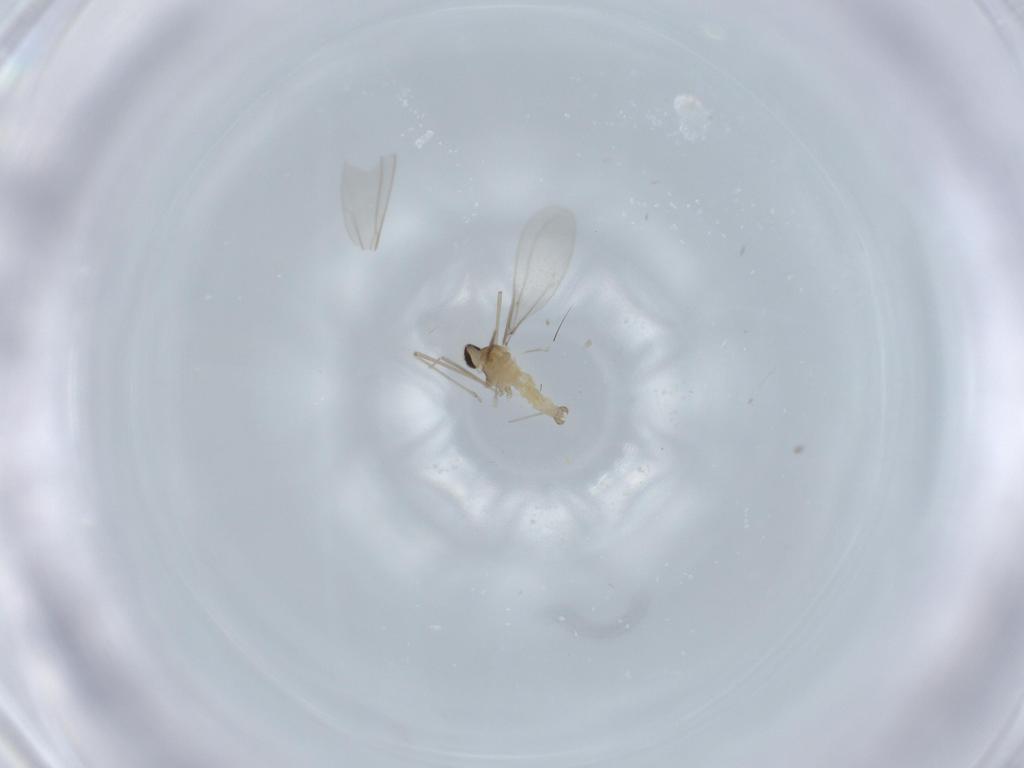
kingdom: Animalia
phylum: Arthropoda
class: Insecta
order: Diptera
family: Cecidomyiidae
